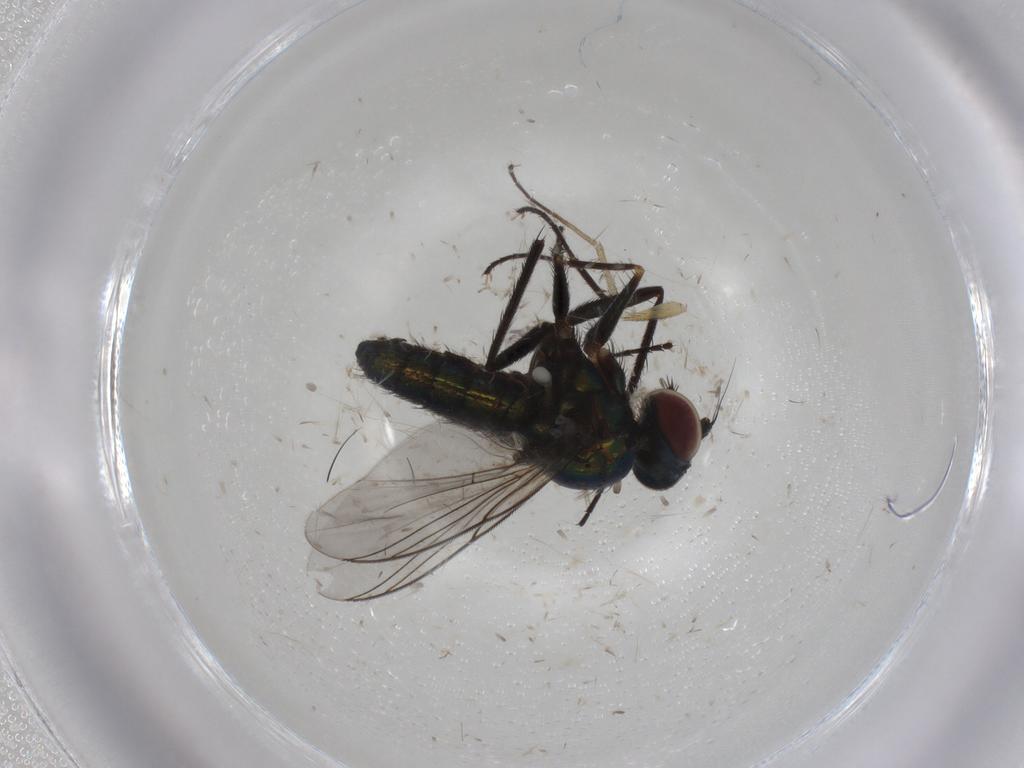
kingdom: Animalia
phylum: Arthropoda
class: Insecta
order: Diptera
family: Dolichopodidae
